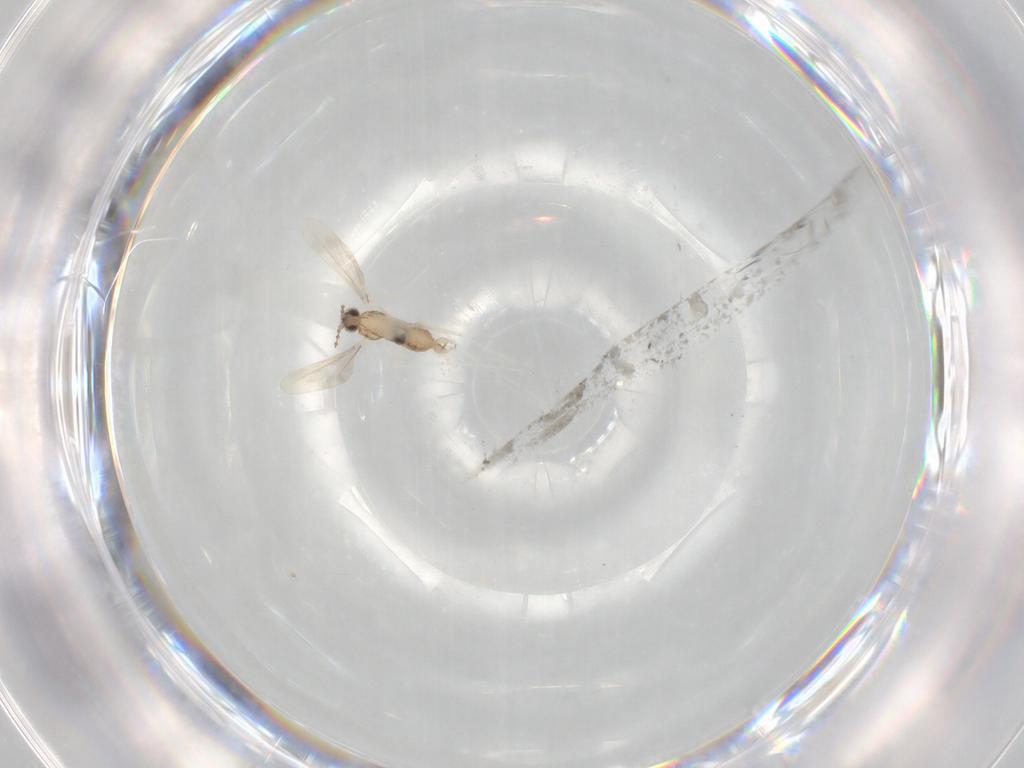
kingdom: Animalia
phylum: Arthropoda
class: Insecta
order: Diptera
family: Cecidomyiidae
